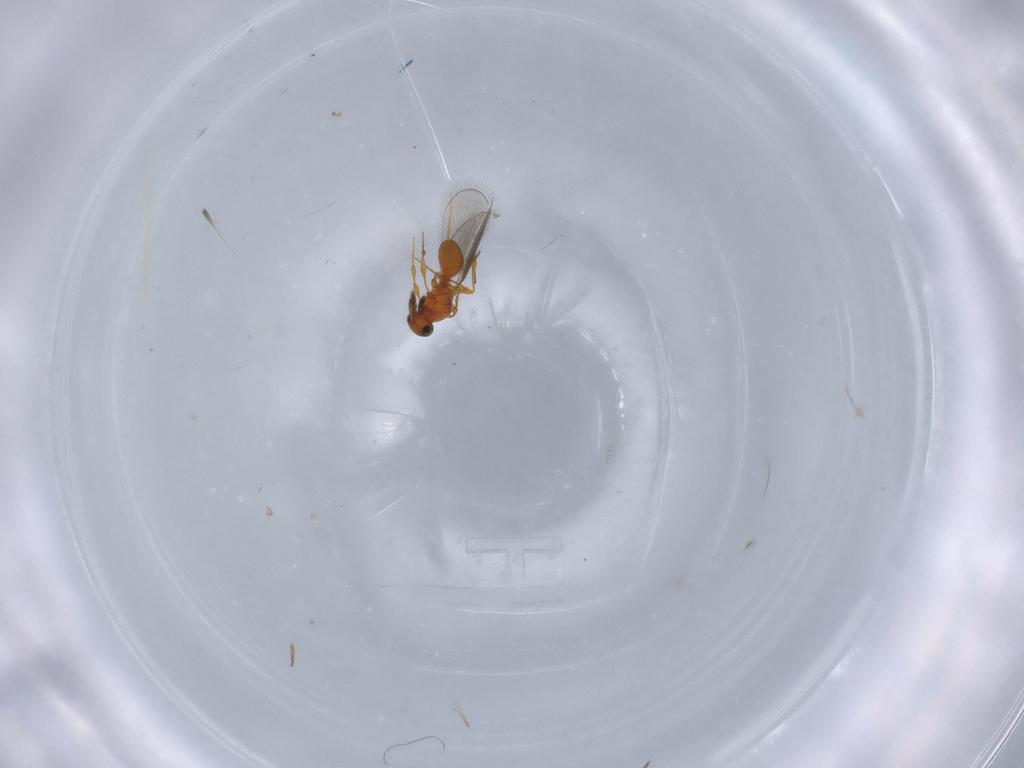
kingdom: Animalia
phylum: Arthropoda
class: Insecta
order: Hymenoptera
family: Platygastridae
